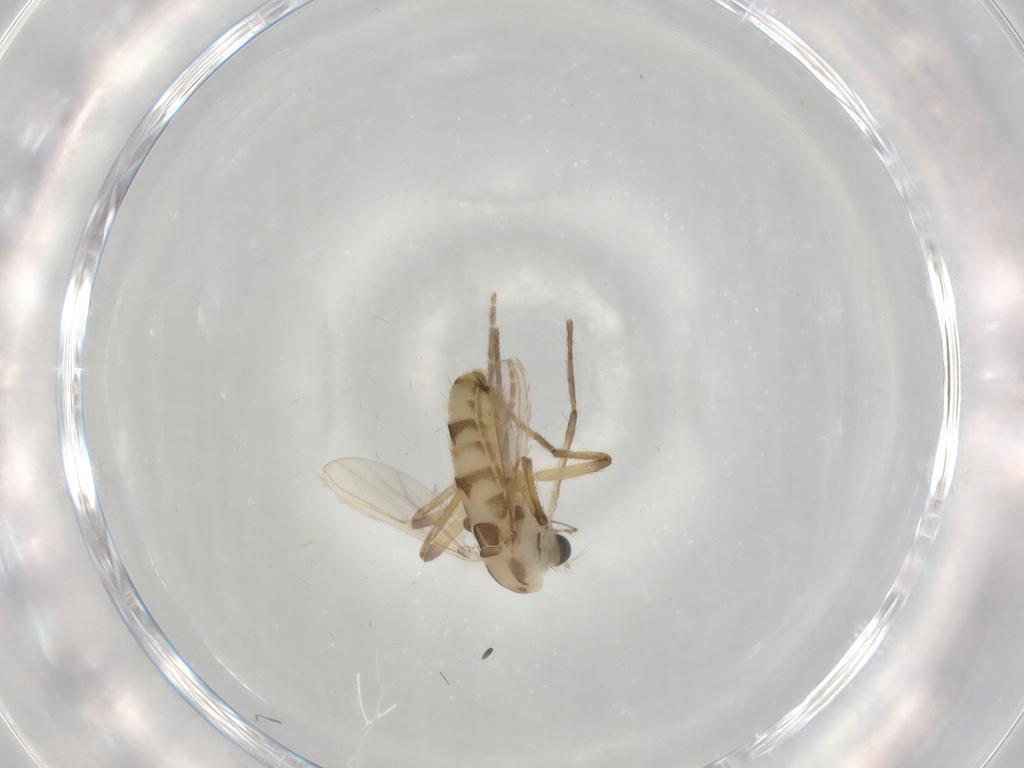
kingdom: Animalia
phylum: Arthropoda
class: Insecta
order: Diptera
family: Chironomidae
